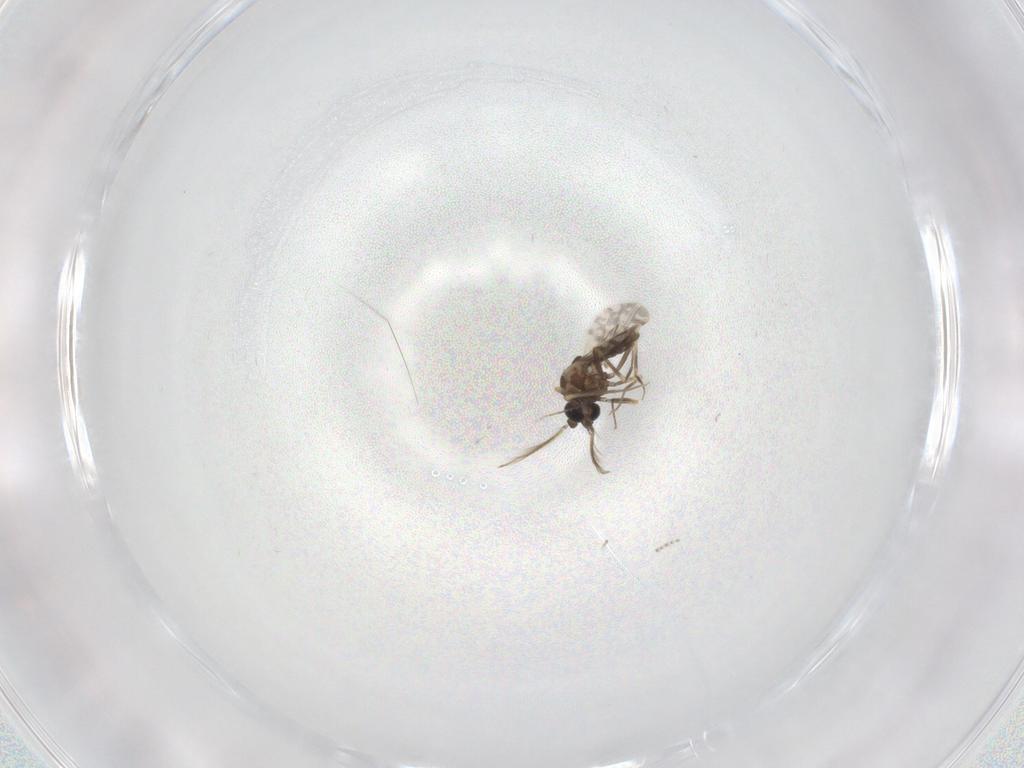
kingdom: Animalia
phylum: Arthropoda
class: Insecta
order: Diptera
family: Ceratopogonidae
